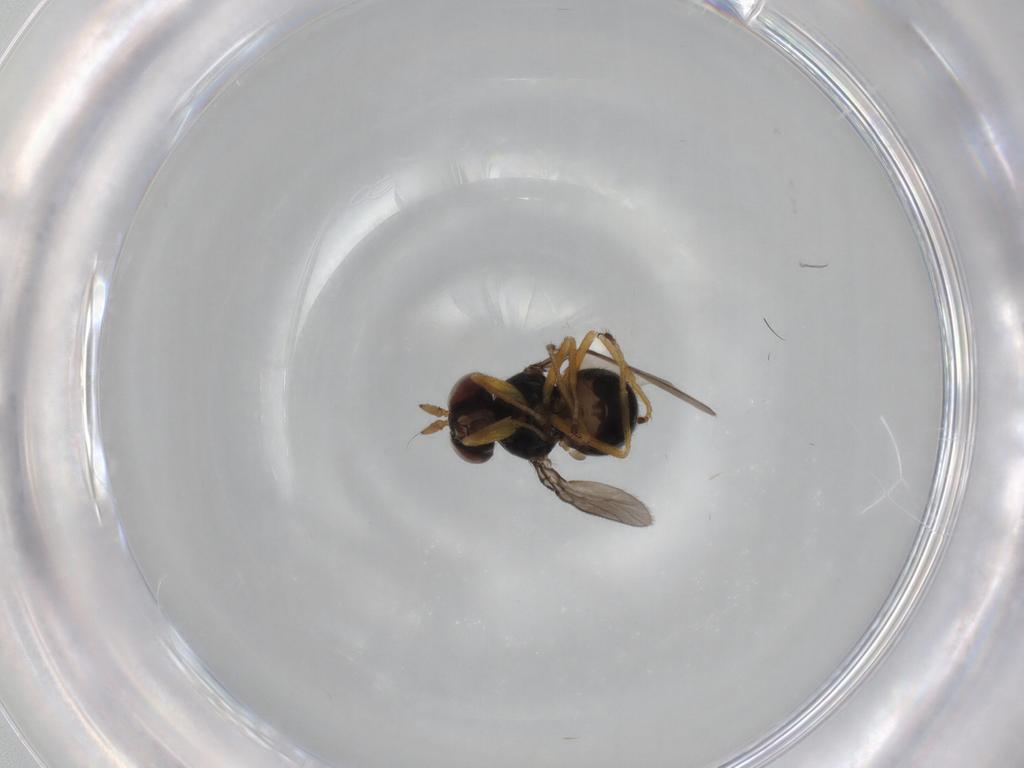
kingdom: Animalia
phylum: Arthropoda
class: Insecta
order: Diptera
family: Ephydridae
